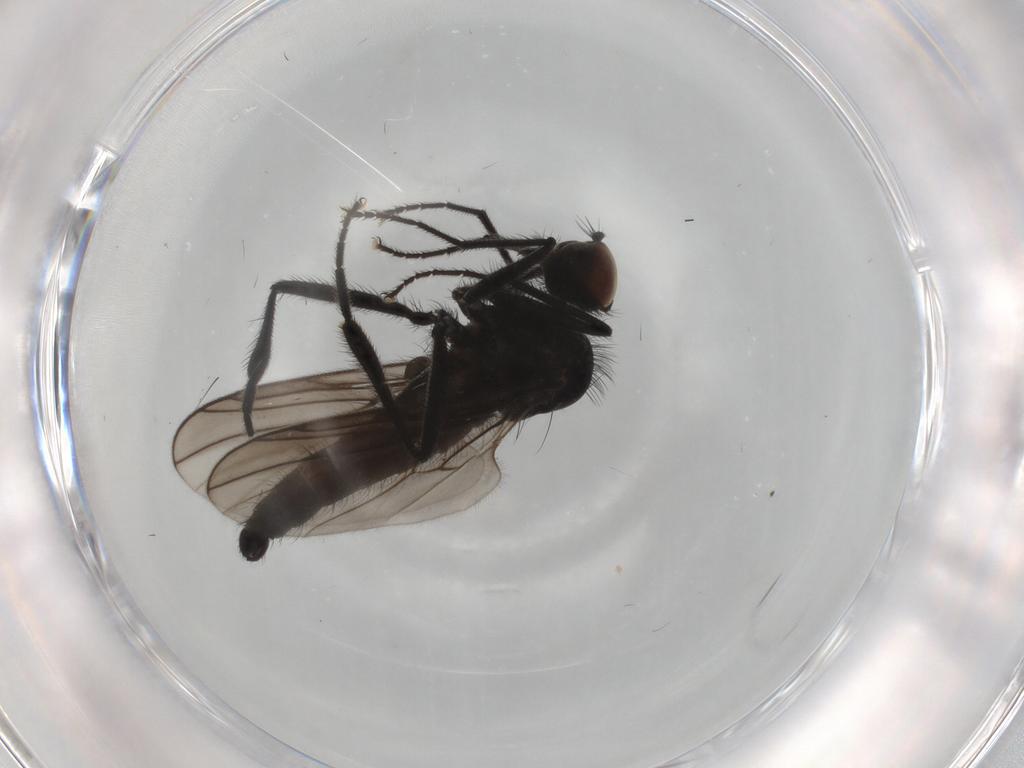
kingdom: Animalia
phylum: Arthropoda
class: Insecta
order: Diptera
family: Hybotidae
